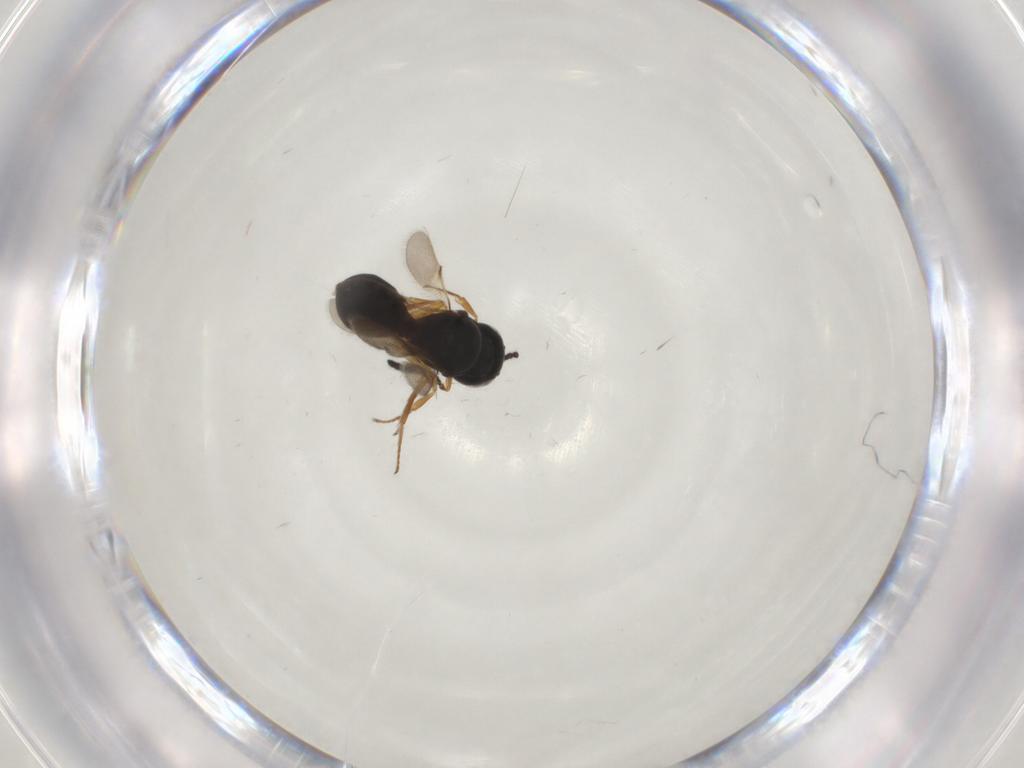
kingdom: Animalia
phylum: Arthropoda
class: Insecta
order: Hymenoptera
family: Scelionidae
